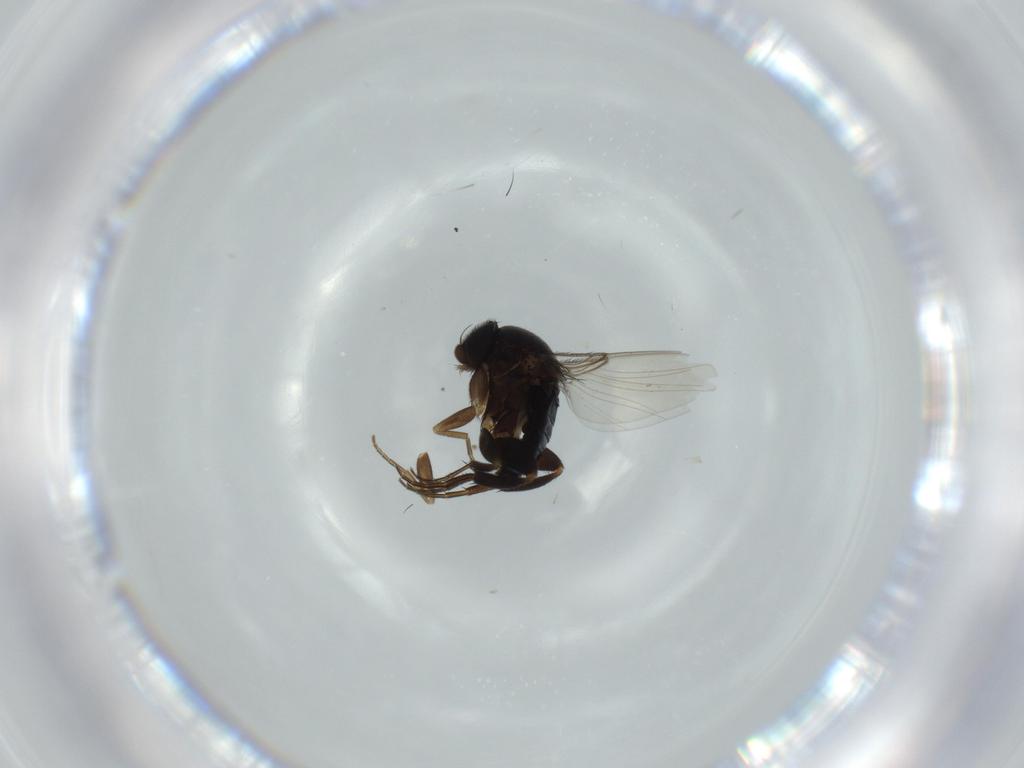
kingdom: Animalia
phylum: Arthropoda
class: Insecta
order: Diptera
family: Phoridae
